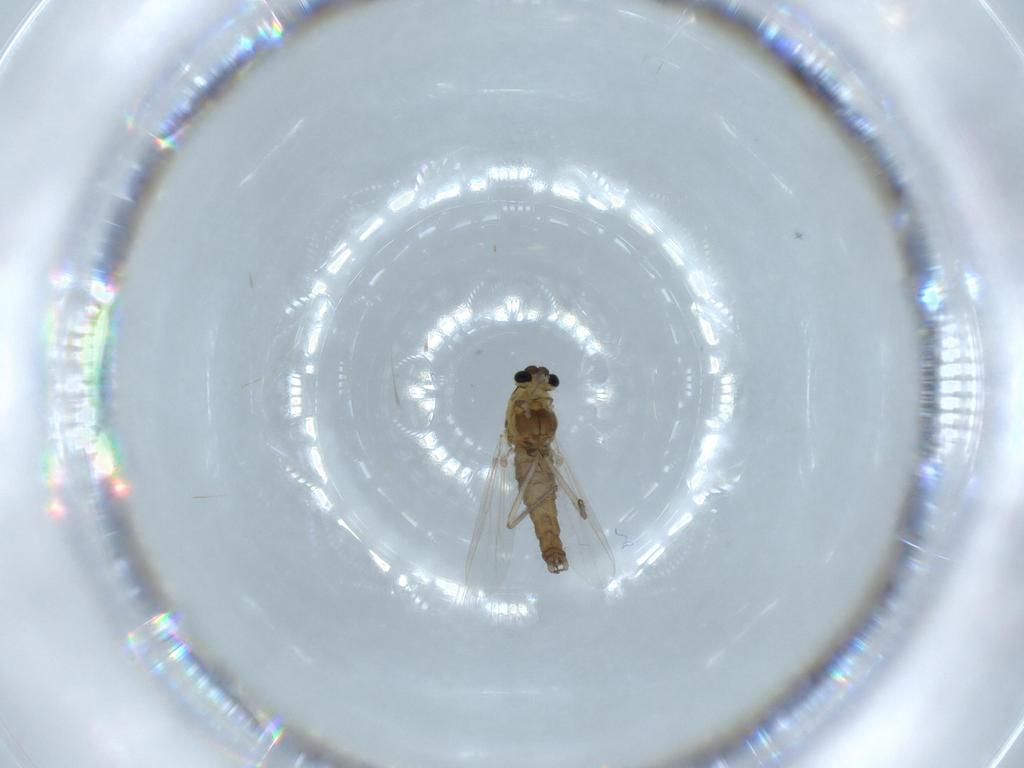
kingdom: Animalia
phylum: Arthropoda
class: Insecta
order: Diptera
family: Chironomidae
